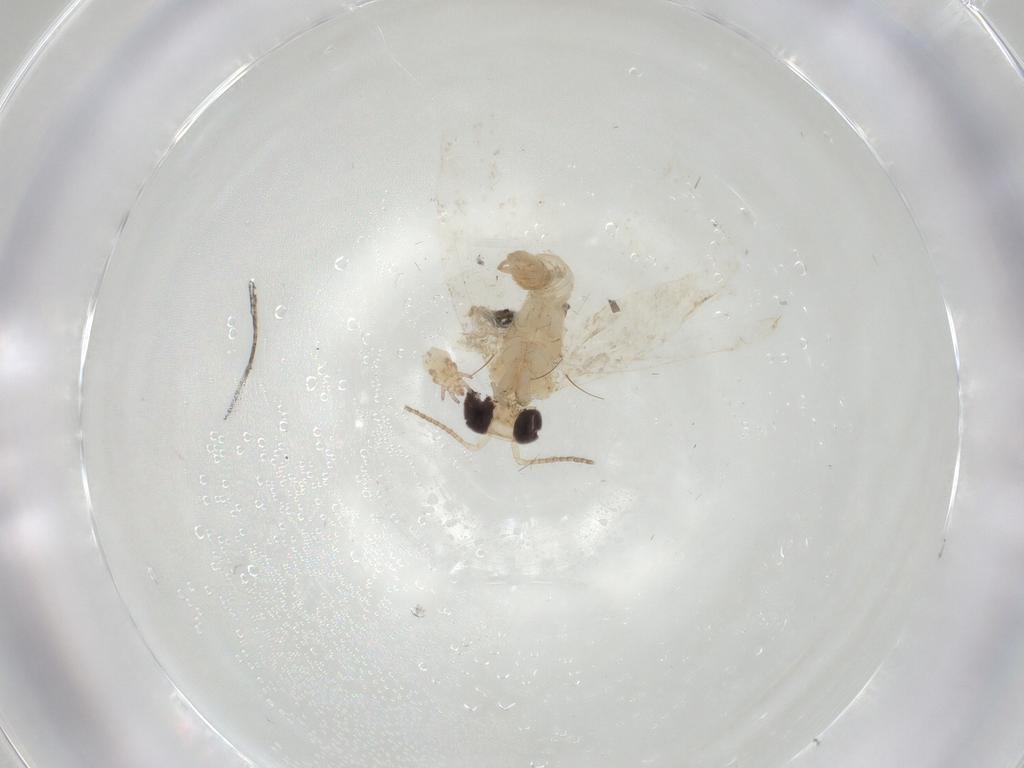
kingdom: Animalia
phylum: Arthropoda
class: Insecta
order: Lepidoptera
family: Psychidae
